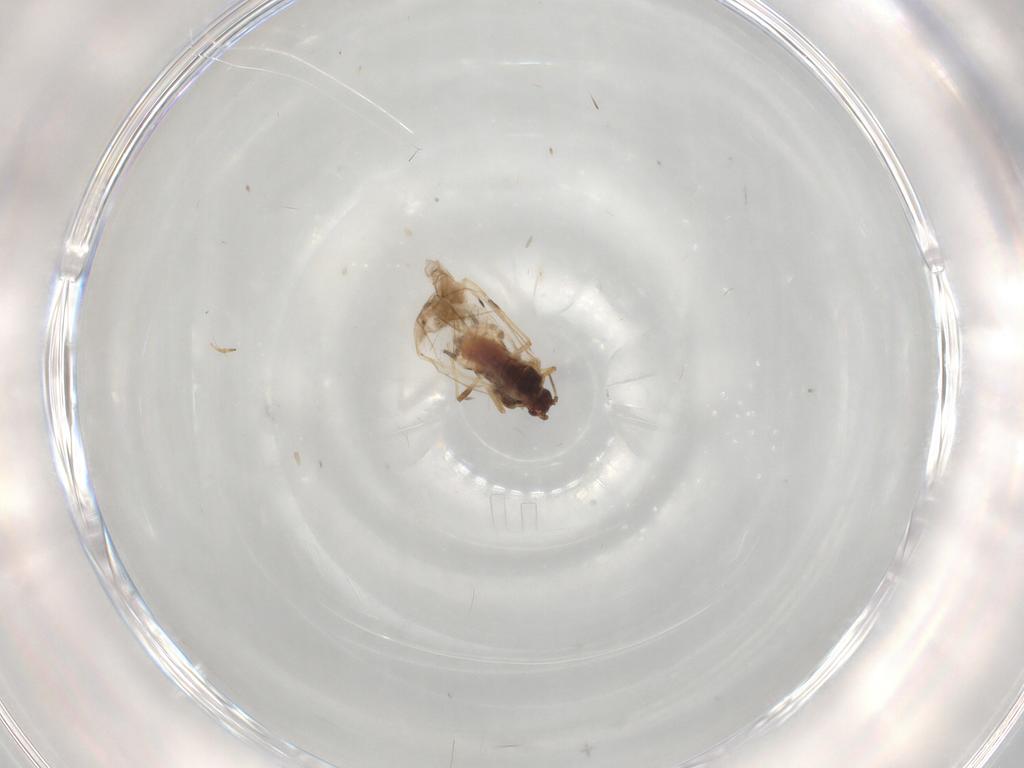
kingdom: Animalia
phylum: Arthropoda
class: Insecta
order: Hemiptera
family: Aphididae
